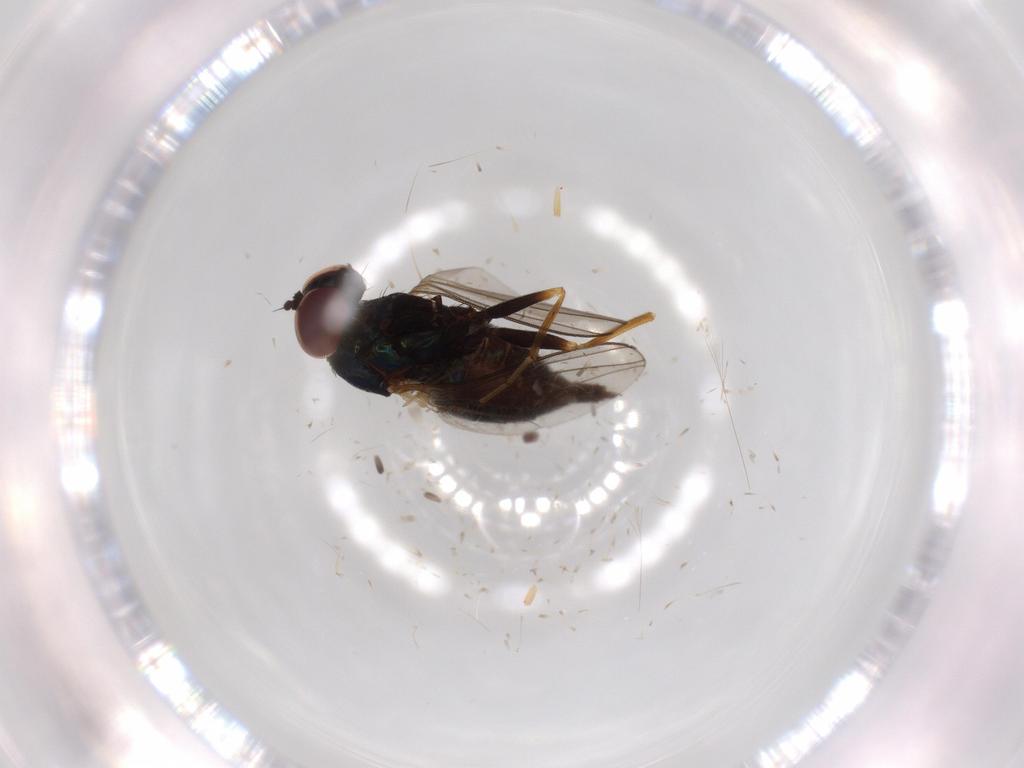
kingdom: Animalia
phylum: Arthropoda
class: Insecta
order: Diptera
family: Dolichopodidae
